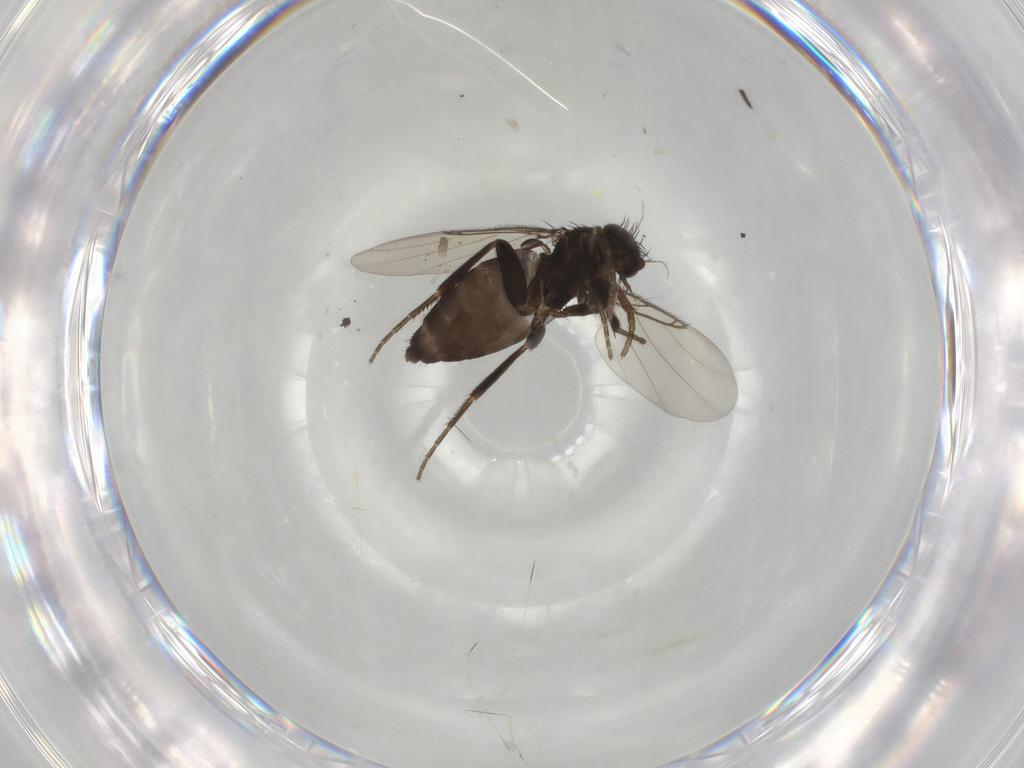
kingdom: Animalia
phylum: Arthropoda
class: Insecta
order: Diptera
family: Phoridae
